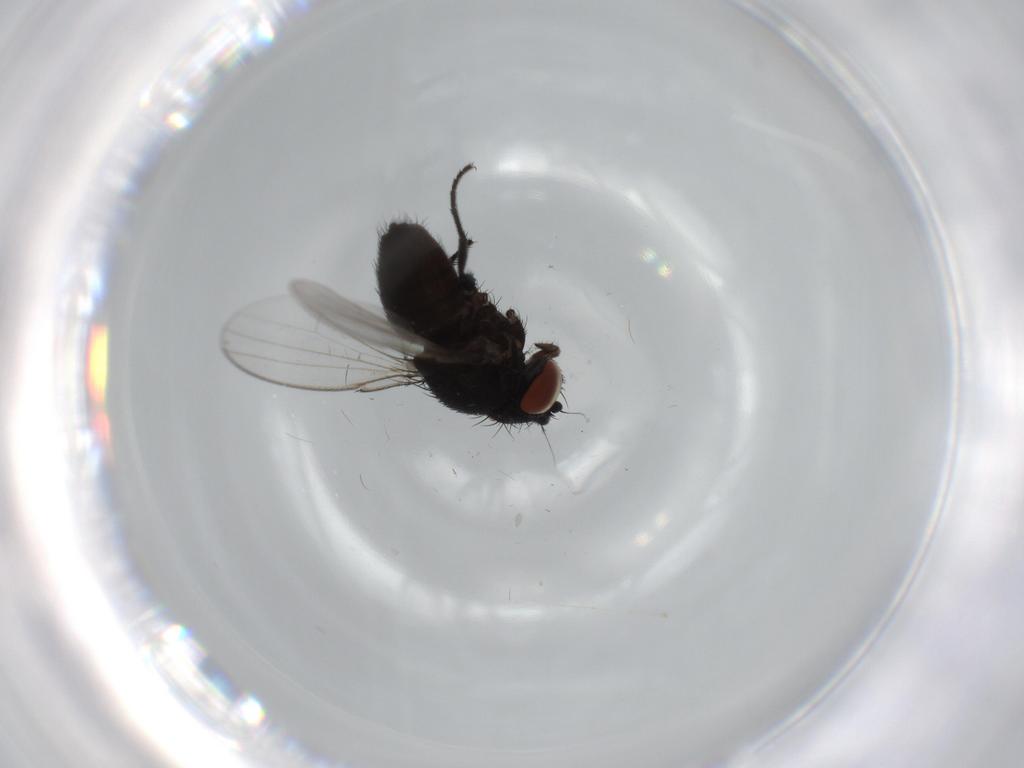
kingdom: Animalia
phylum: Arthropoda
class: Insecta
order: Diptera
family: Milichiidae
